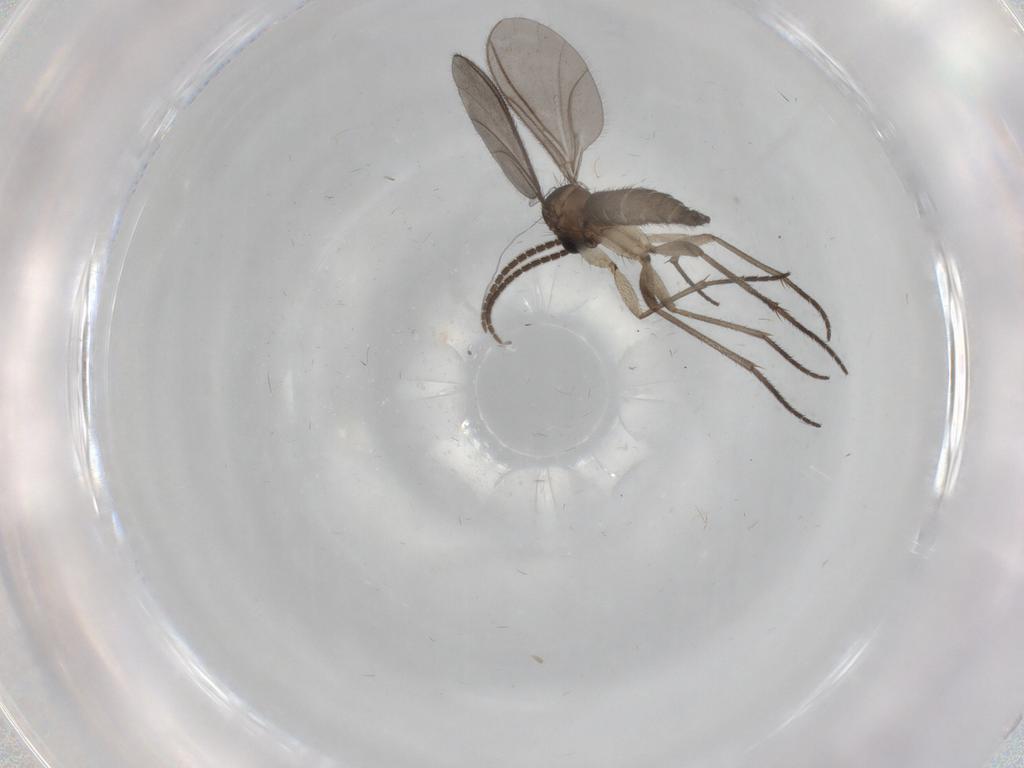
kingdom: Animalia
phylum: Arthropoda
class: Insecta
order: Diptera
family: Sciaridae
